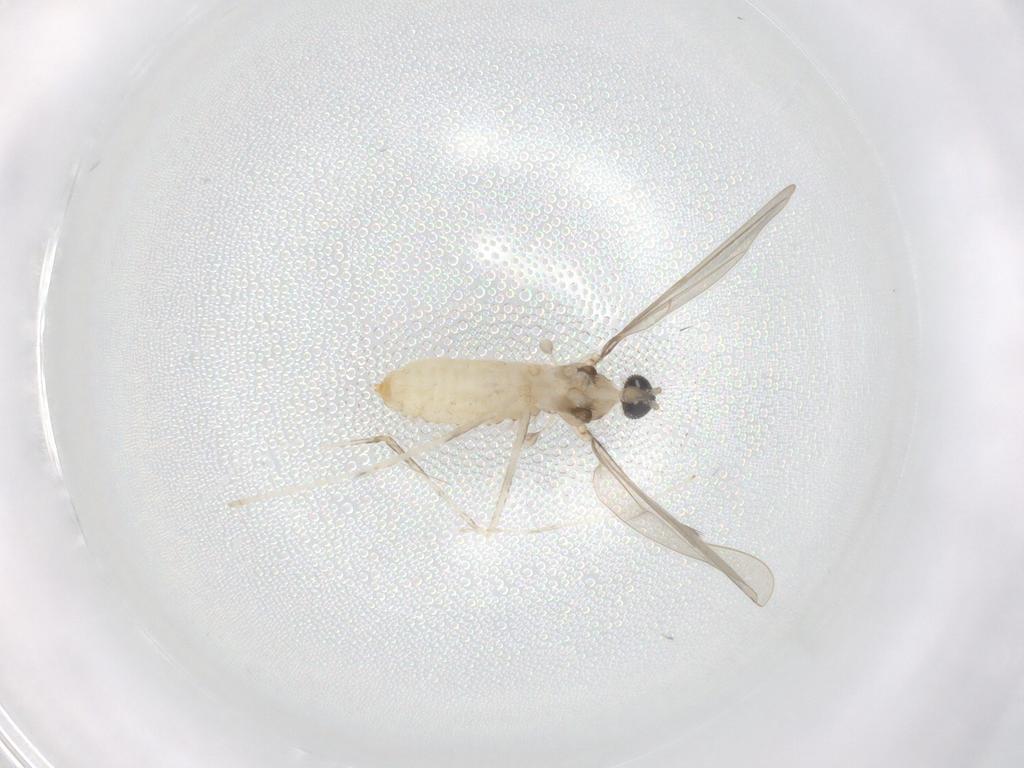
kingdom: Animalia
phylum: Arthropoda
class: Insecta
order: Diptera
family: Cecidomyiidae
